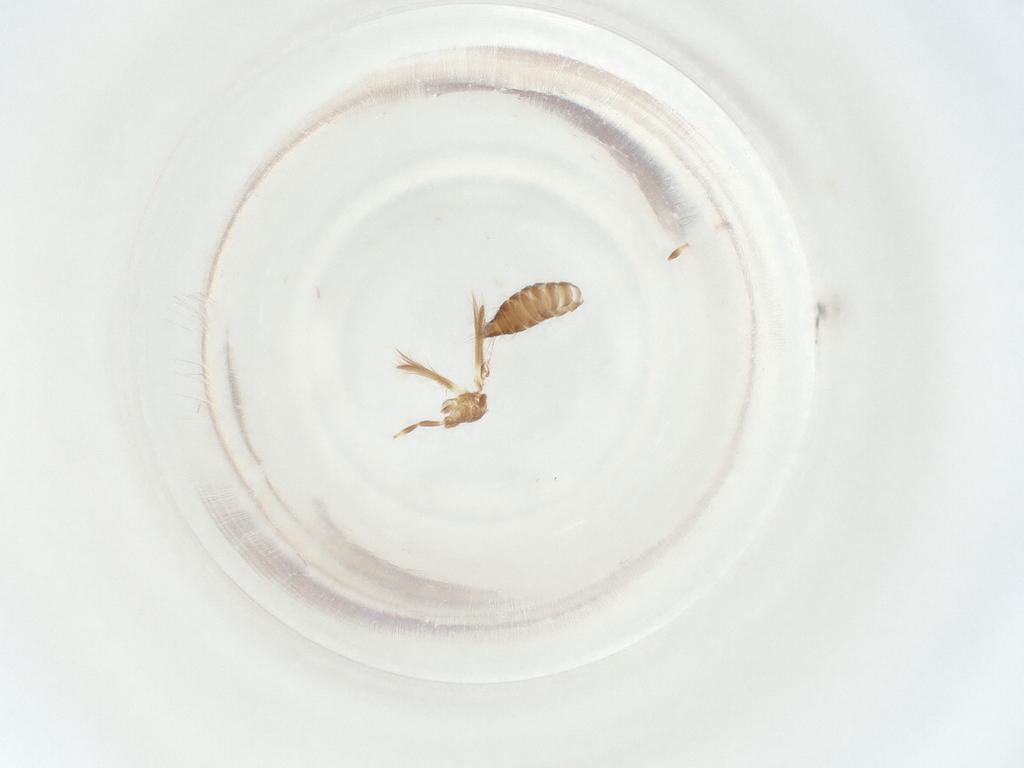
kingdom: Animalia
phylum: Arthropoda
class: Insecta
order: Thysanoptera
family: Thripidae
